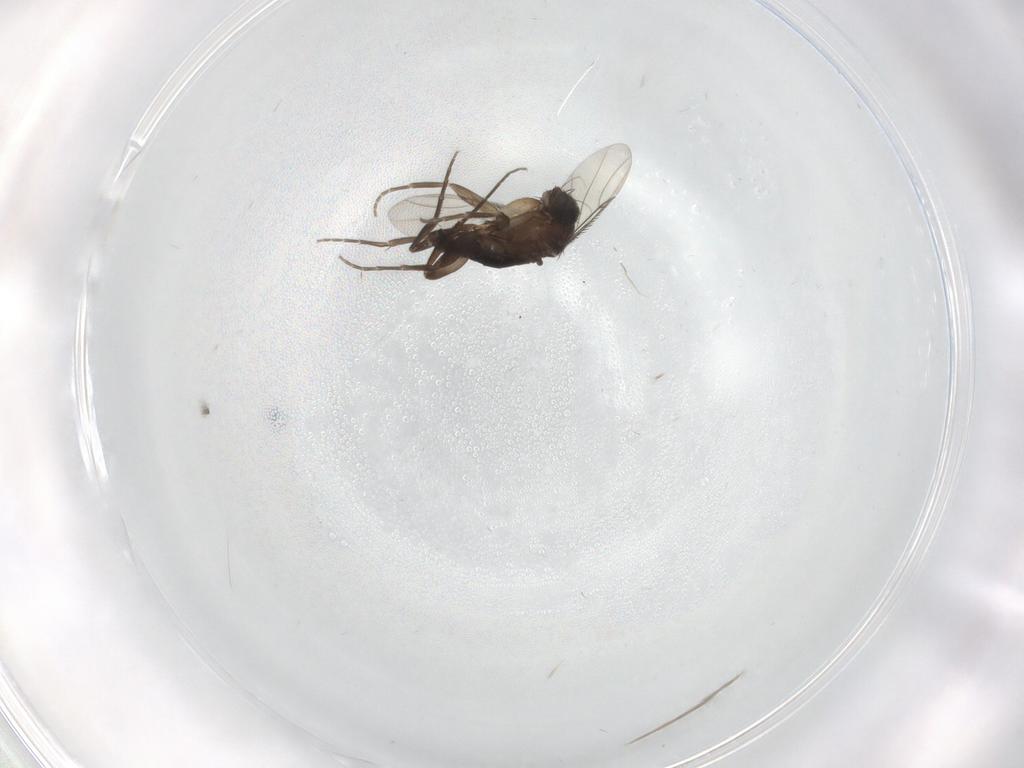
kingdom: Animalia
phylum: Arthropoda
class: Insecta
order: Diptera
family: Phoridae
